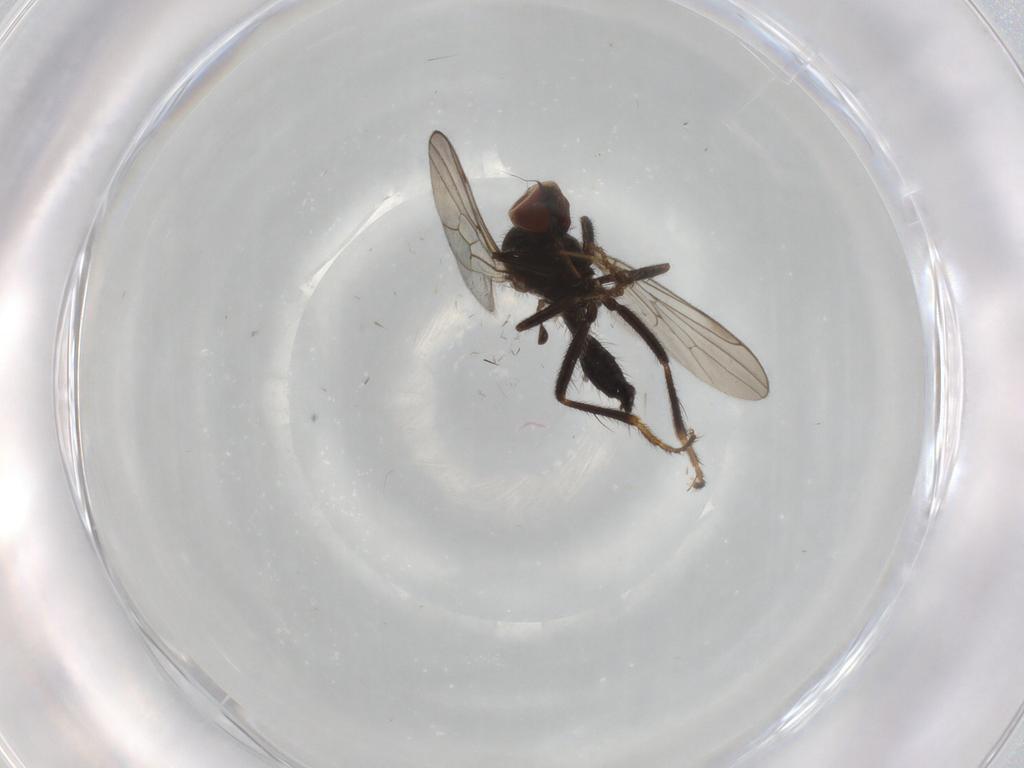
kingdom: Animalia
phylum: Arthropoda
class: Insecta
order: Diptera
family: Hybotidae
